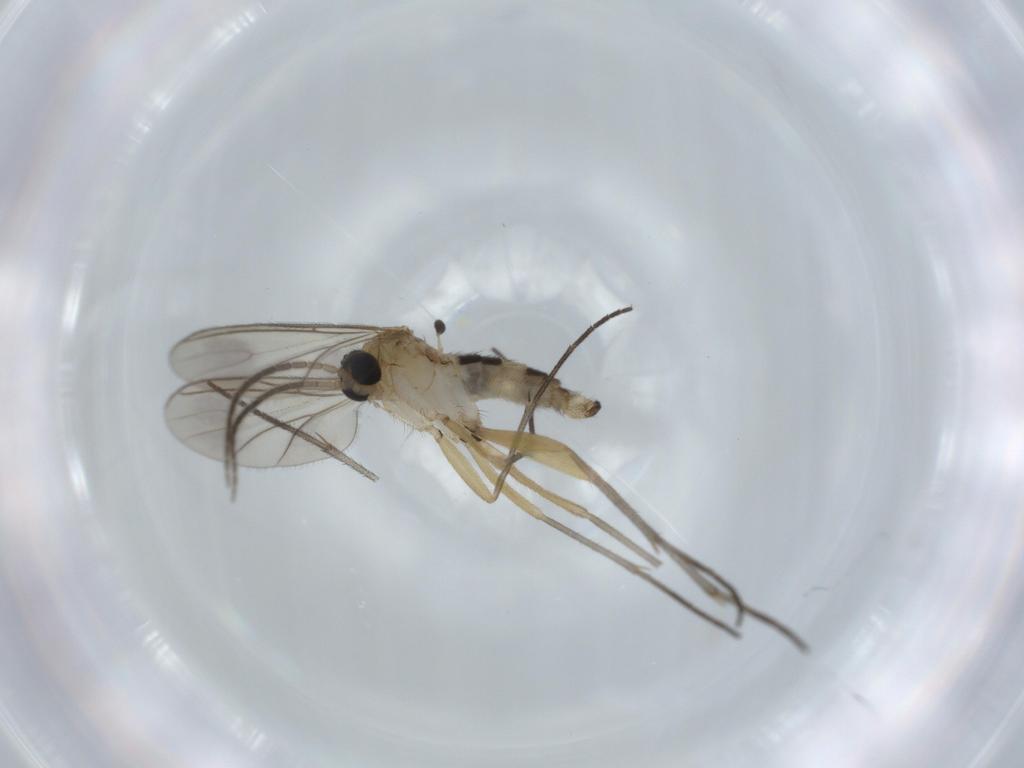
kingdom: Animalia
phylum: Arthropoda
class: Insecta
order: Diptera
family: Sciaridae
